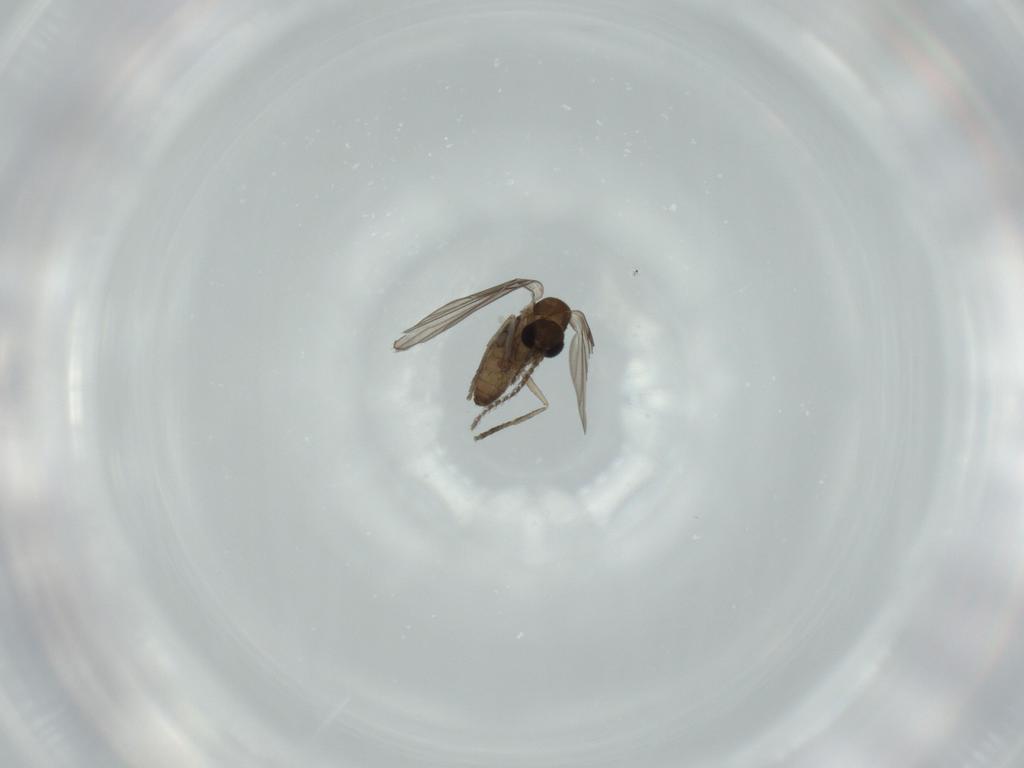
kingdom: Animalia
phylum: Arthropoda
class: Insecta
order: Diptera
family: Psychodidae
